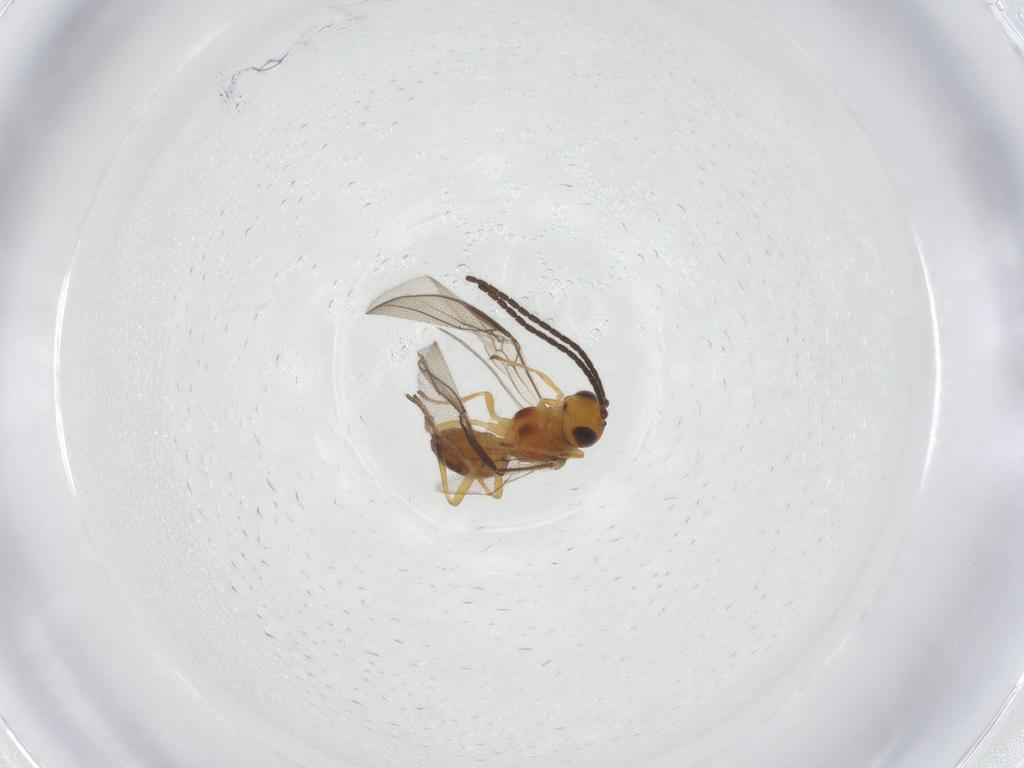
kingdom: Animalia
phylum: Arthropoda
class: Insecta
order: Hymenoptera
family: Braconidae
